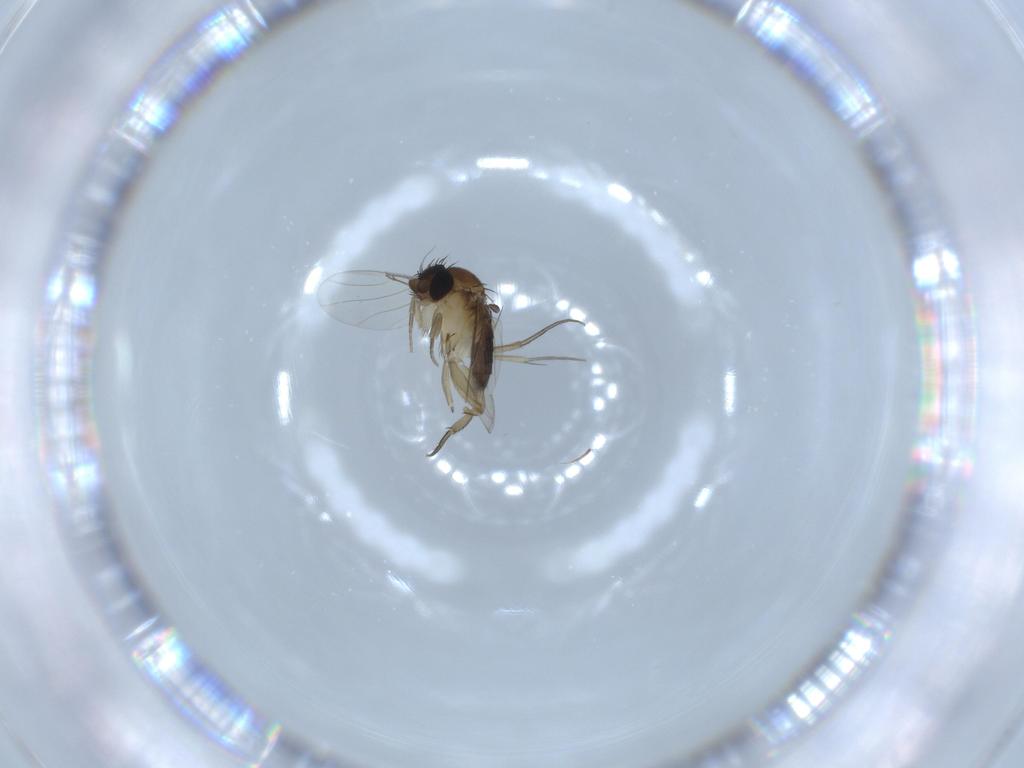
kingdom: Animalia
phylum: Arthropoda
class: Insecta
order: Diptera
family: Phoridae
